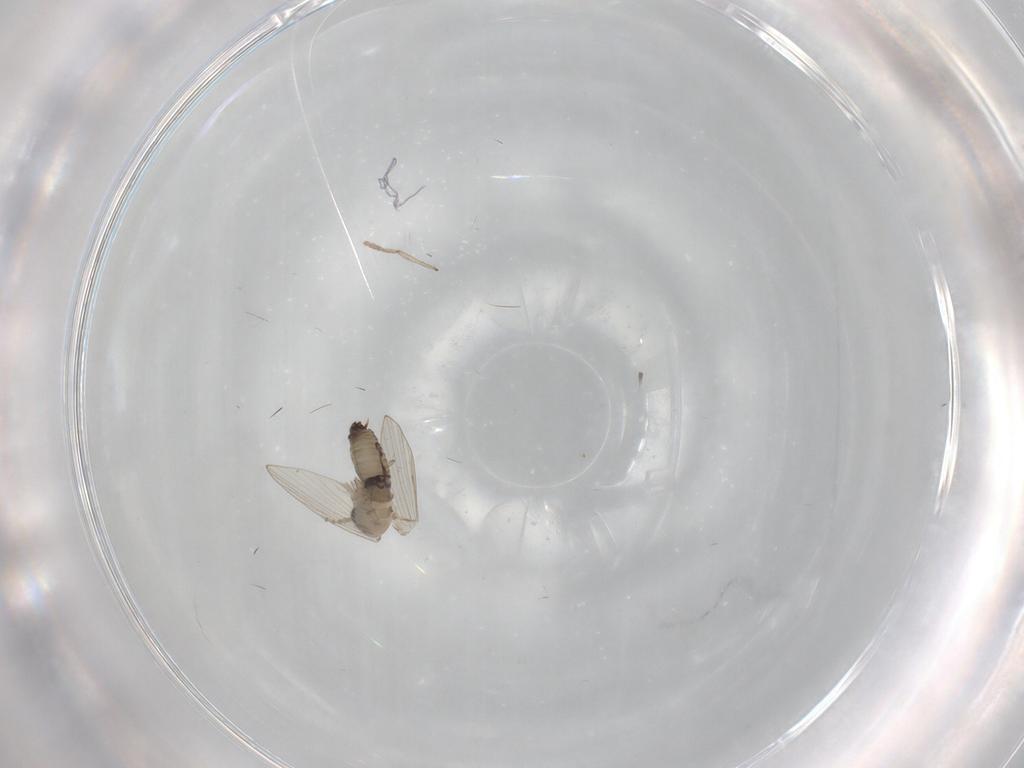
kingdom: Animalia
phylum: Arthropoda
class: Insecta
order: Diptera
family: Psychodidae
